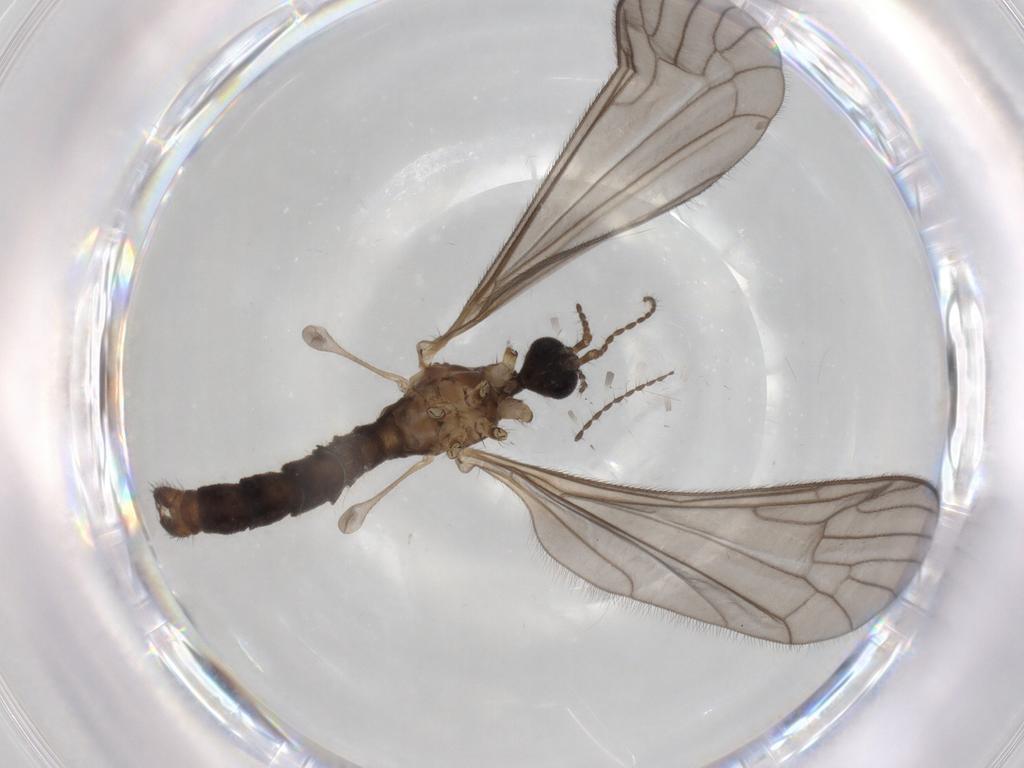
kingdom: Animalia
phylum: Arthropoda
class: Insecta
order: Diptera
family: Limoniidae
